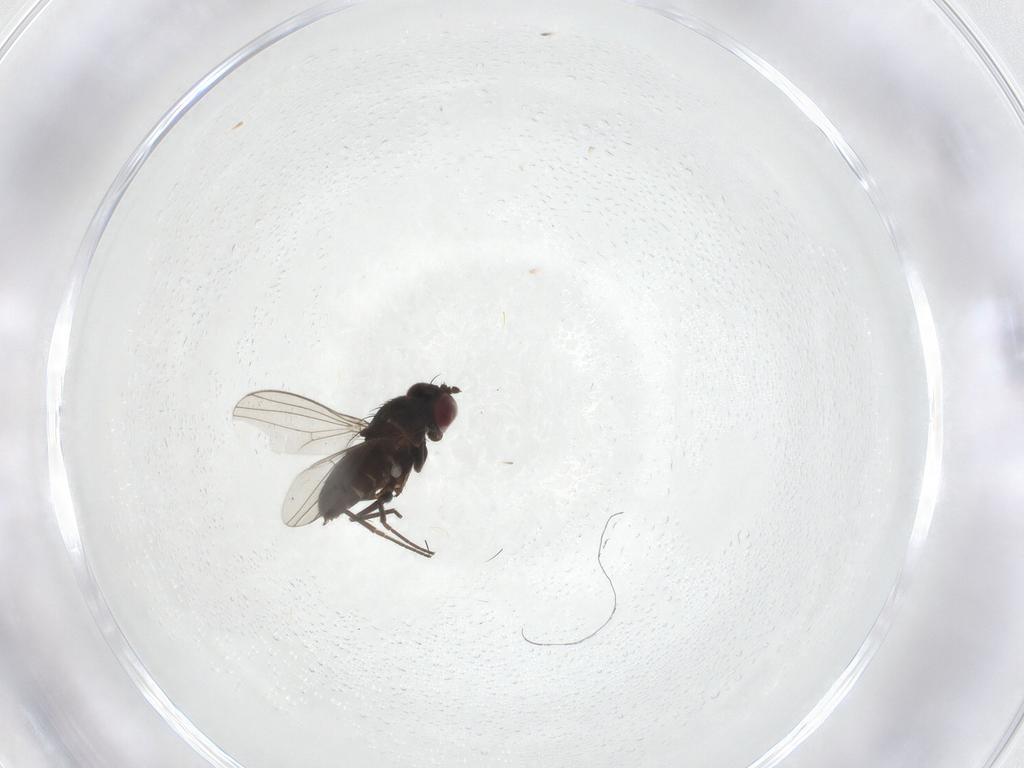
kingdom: Animalia
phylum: Arthropoda
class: Insecta
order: Diptera
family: Dolichopodidae
